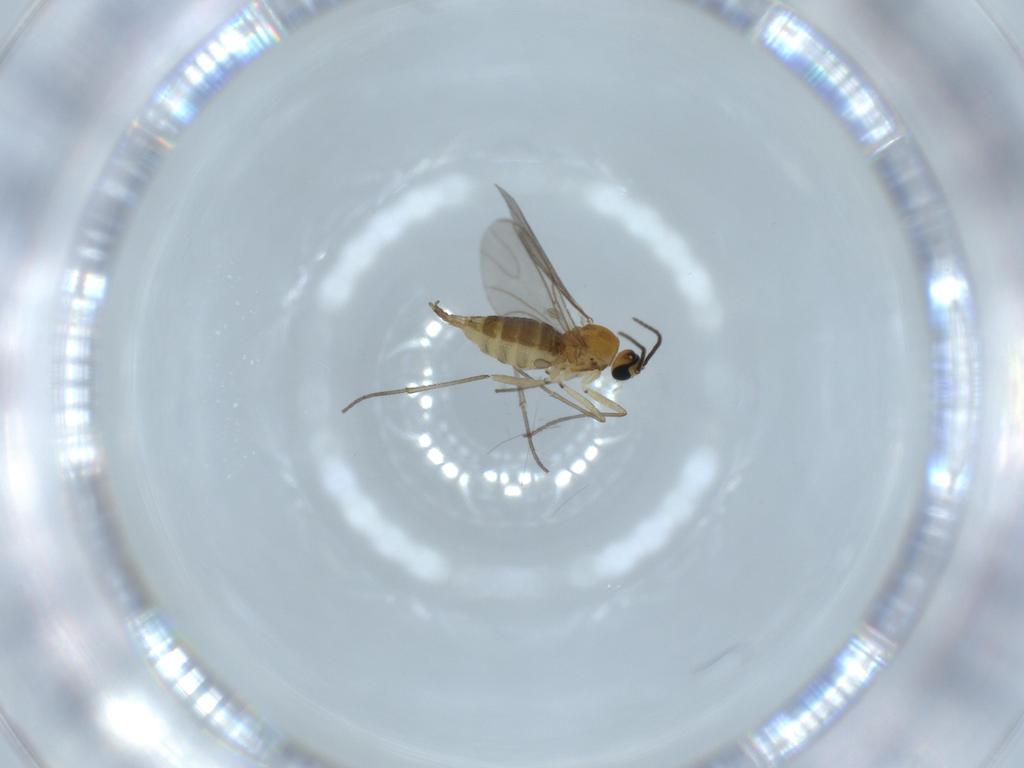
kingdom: Animalia
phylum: Arthropoda
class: Insecta
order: Diptera
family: Sciaridae
